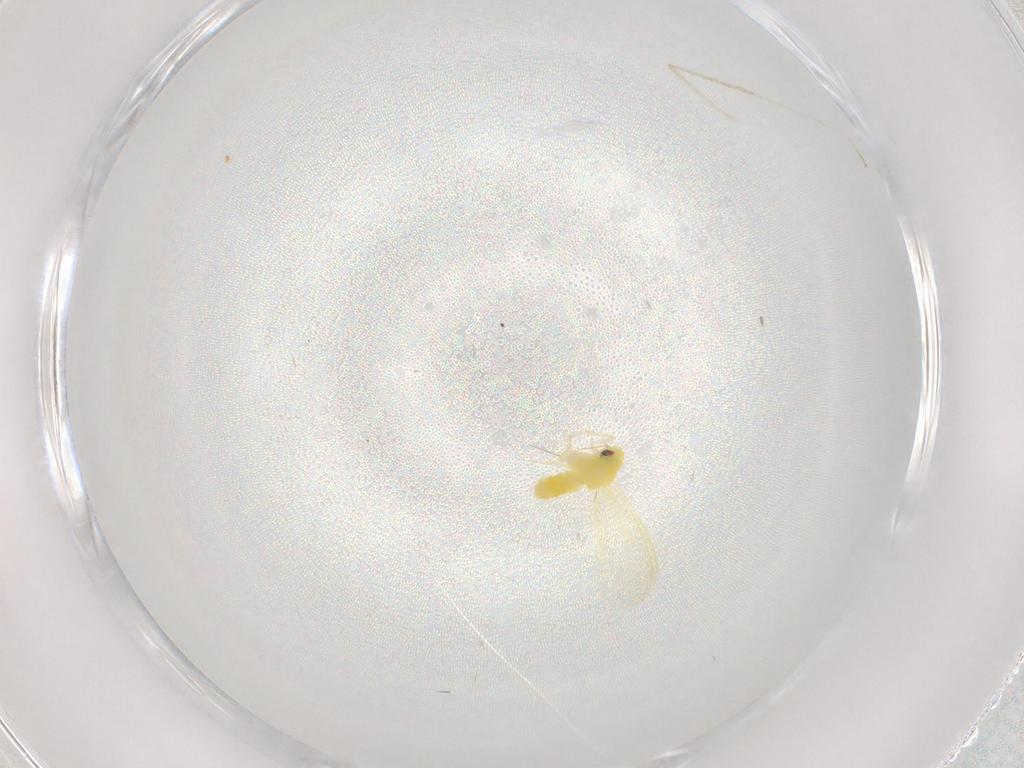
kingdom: Animalia
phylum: Arthropoda
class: Insecta
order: Hemiptera
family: Aleyrodidae
